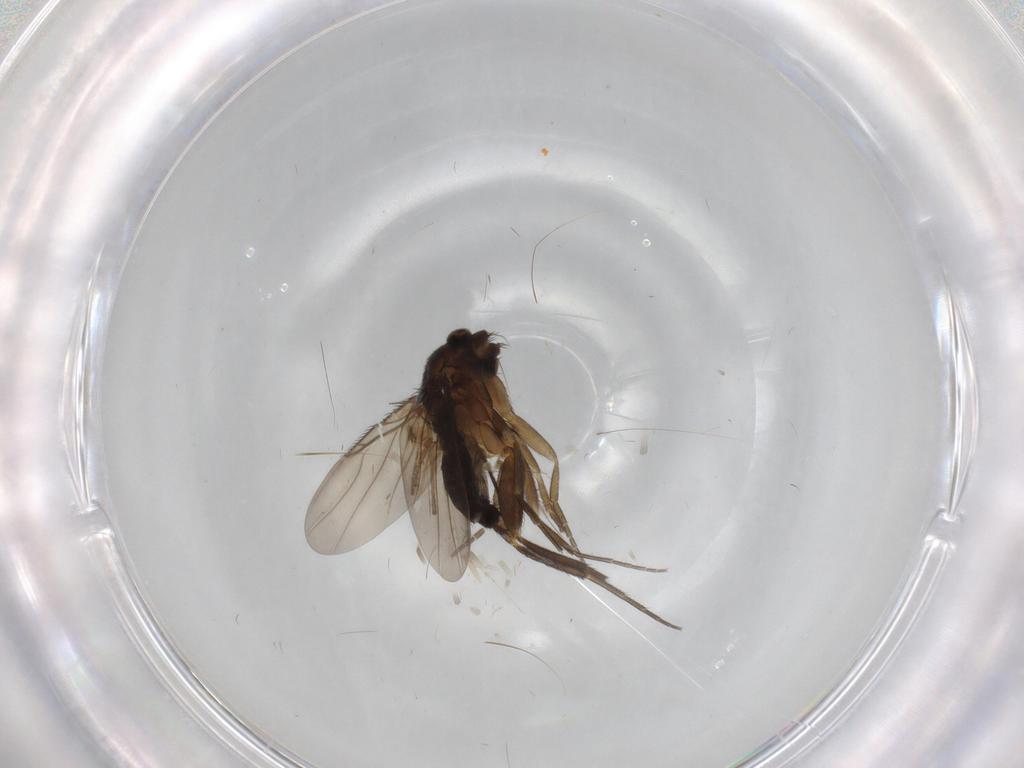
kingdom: Animalia
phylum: Arthropoda
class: Insecta
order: Diptera
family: Phoridae
